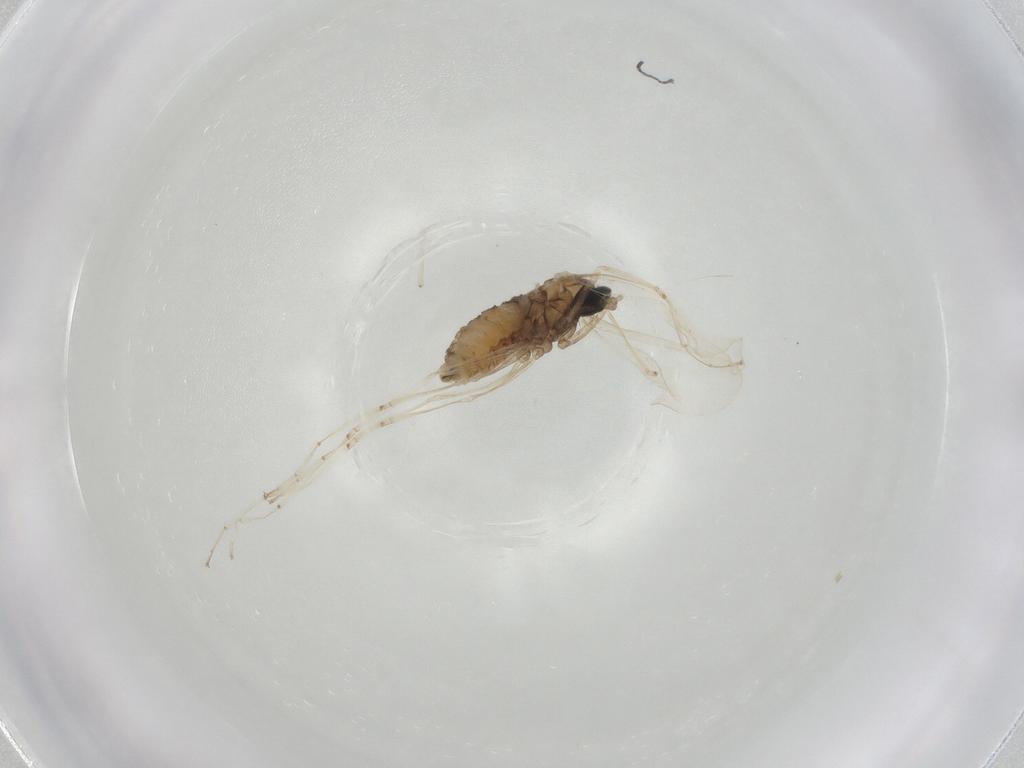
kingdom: Animalia
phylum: Arthropoda
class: Insecta
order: Diptera
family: Cecidomyiidae
